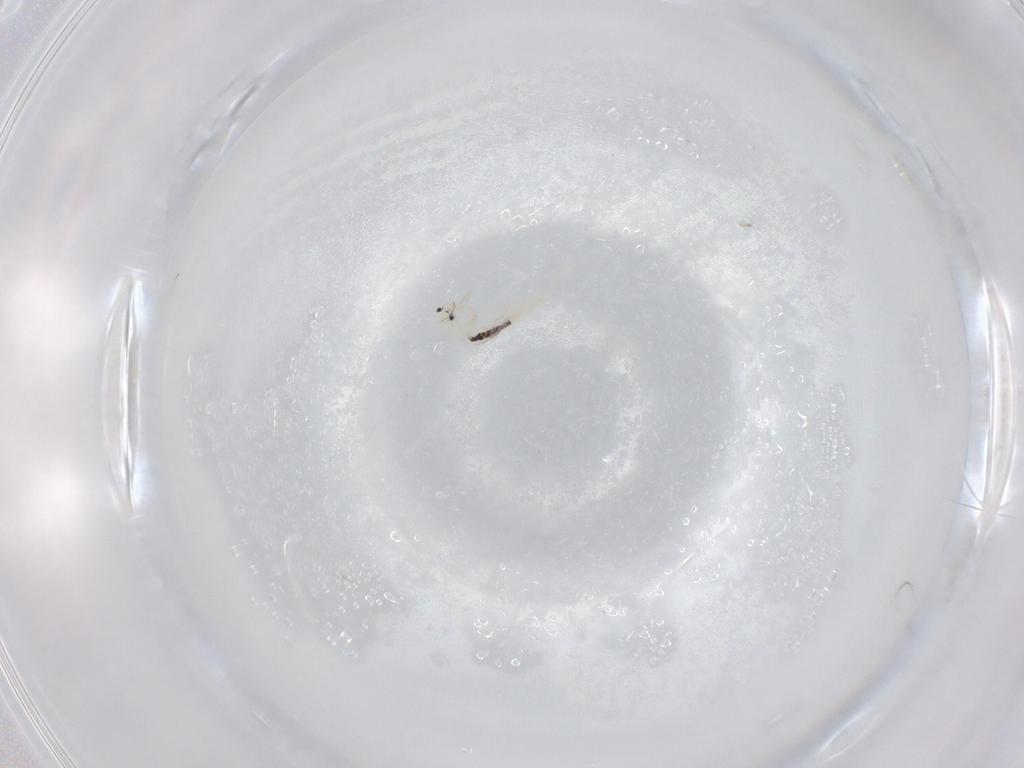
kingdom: Animalia
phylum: Arthropoda
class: Collembola
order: Entomobryomorpha
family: Entomobryidae
